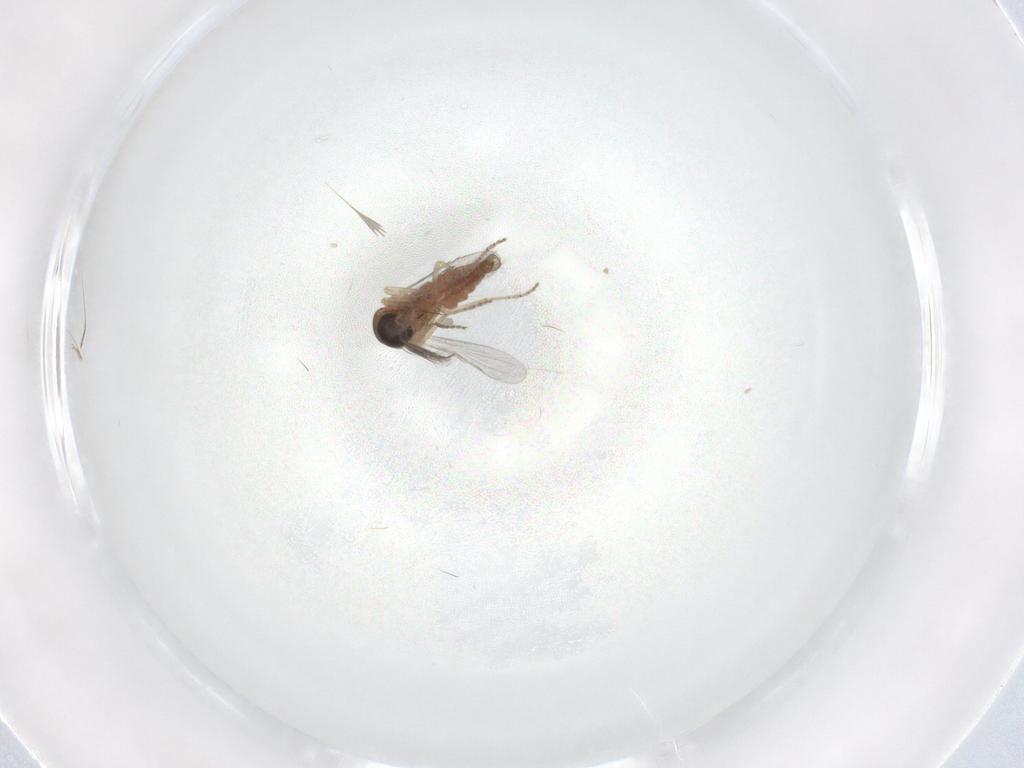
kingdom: Animalia
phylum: Arthropoda
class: Insecta
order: Diptera
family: Ceratopogonidae
